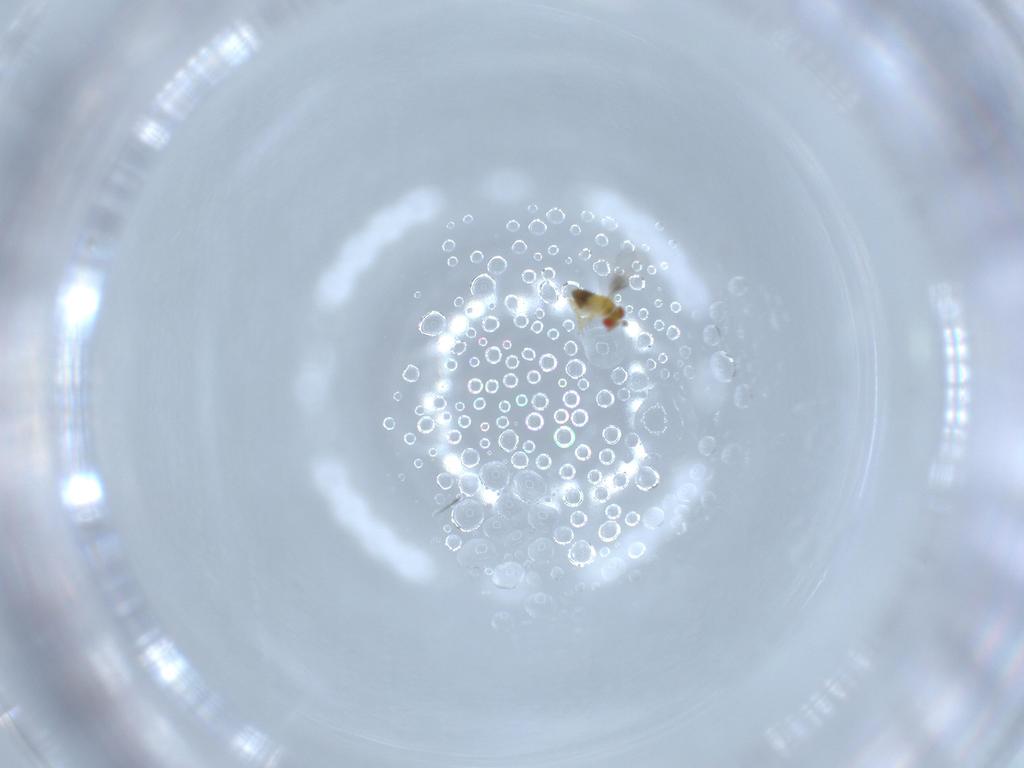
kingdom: Animalia
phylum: Arthropoda
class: Insecta
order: Hymenoptera
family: Trichogrammatidae
